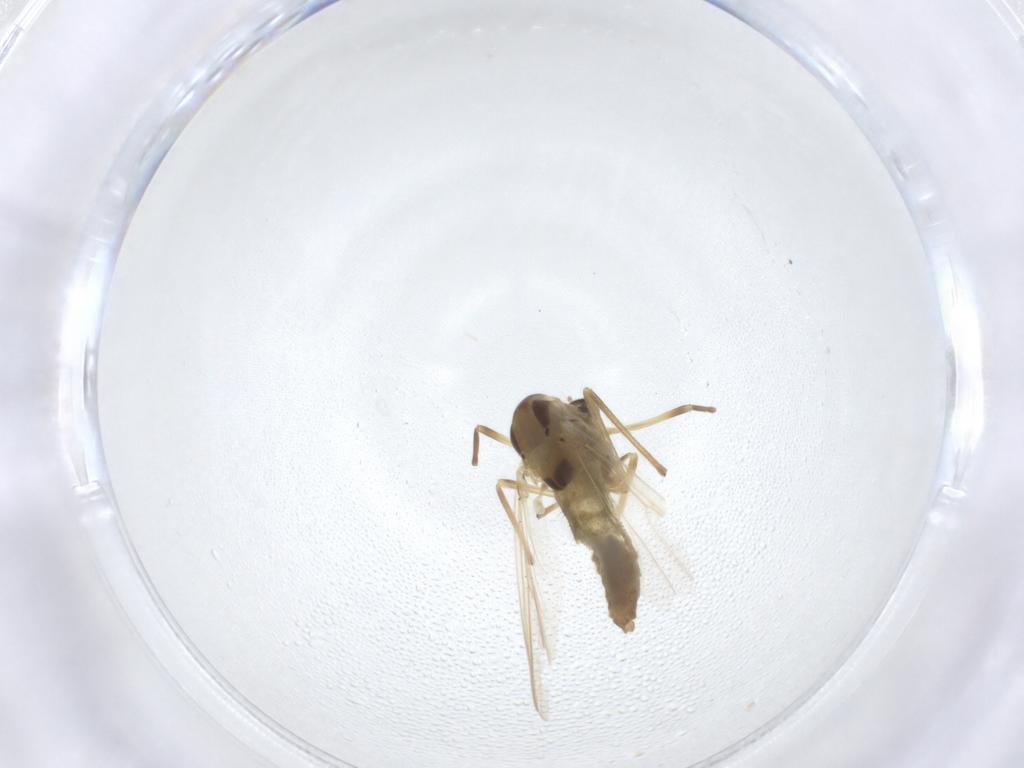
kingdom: Animalia
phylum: Arthropoda
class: Insecta
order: Diptera
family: Chironomidae
